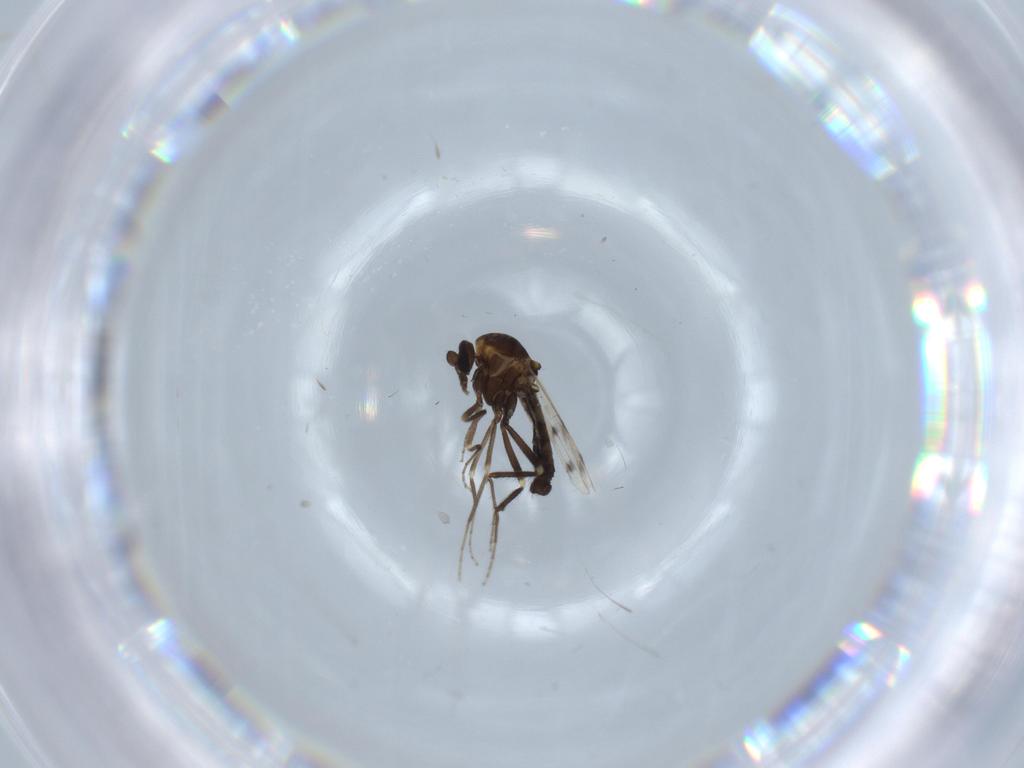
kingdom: Animalia
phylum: Arthropoda
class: Insecta
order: Diptera
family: Ceratopogonidae
